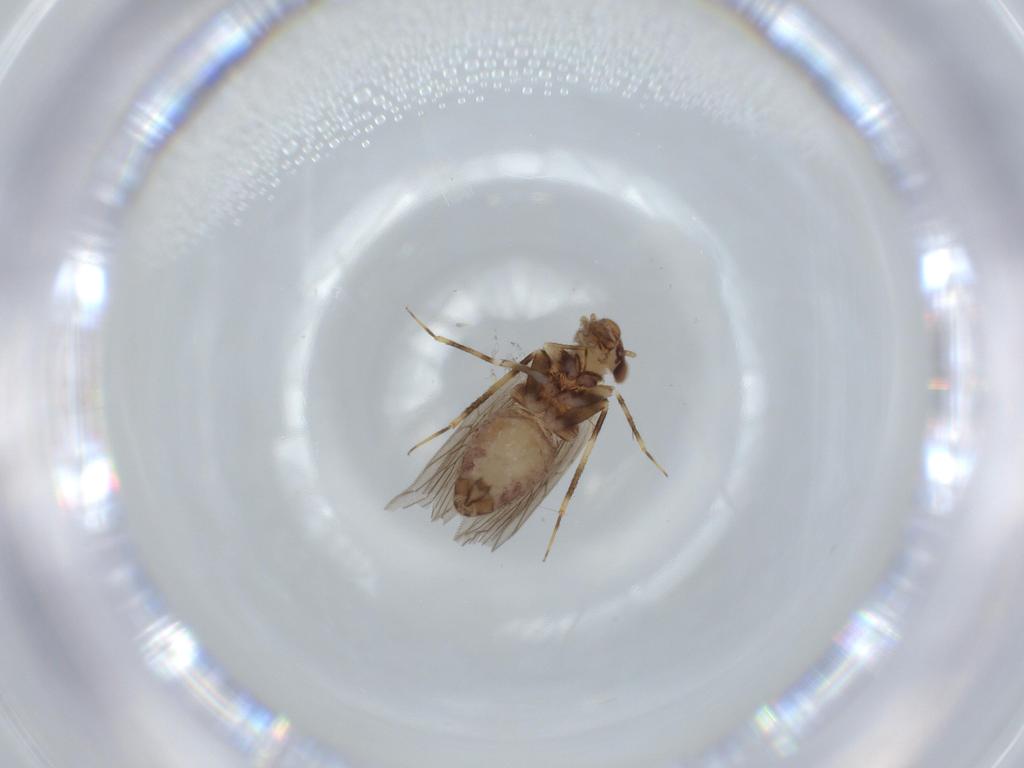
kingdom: Animalia
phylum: Arthropoda
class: Insecta
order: Psocodea
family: Lepidopsocidae
